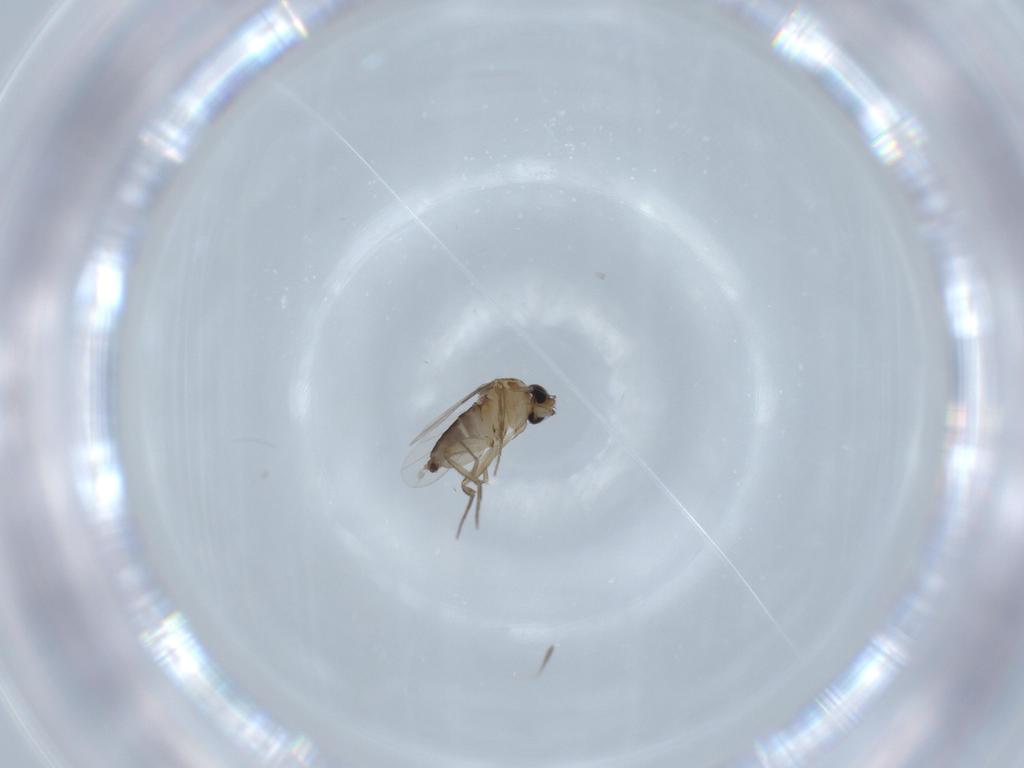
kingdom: Animalia
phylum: Arthropoda
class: Insecta
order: Diptera
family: Phoridae
